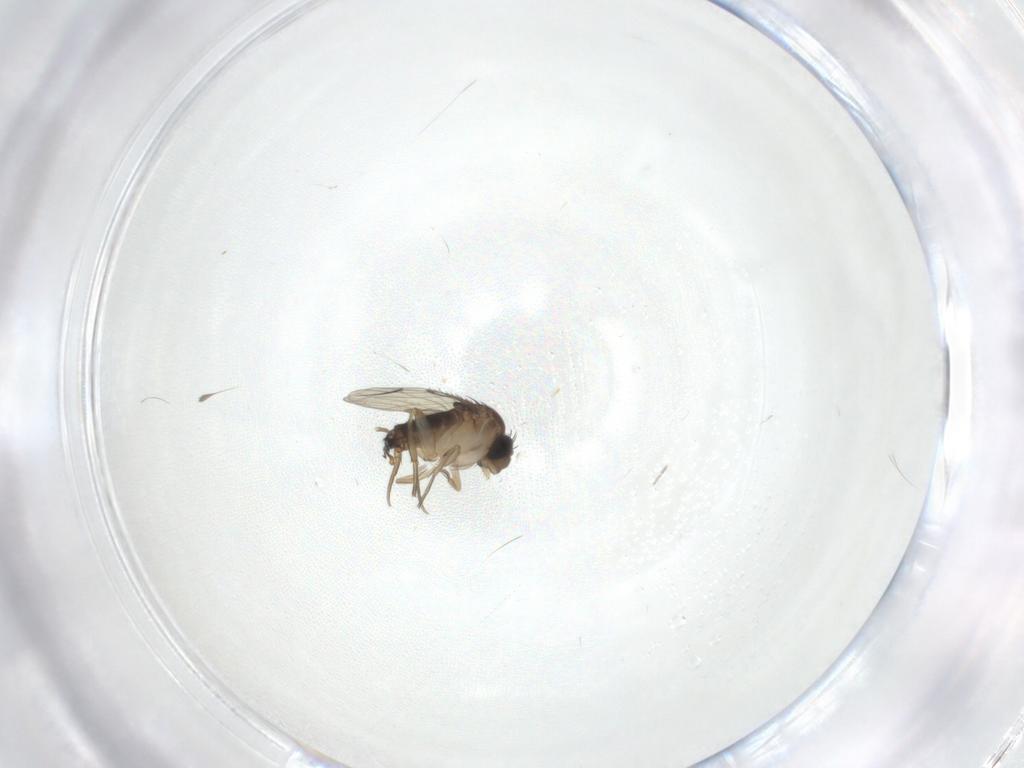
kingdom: Animalia
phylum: Arthropoda
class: Insecta
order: Diptera
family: Chironomidae
